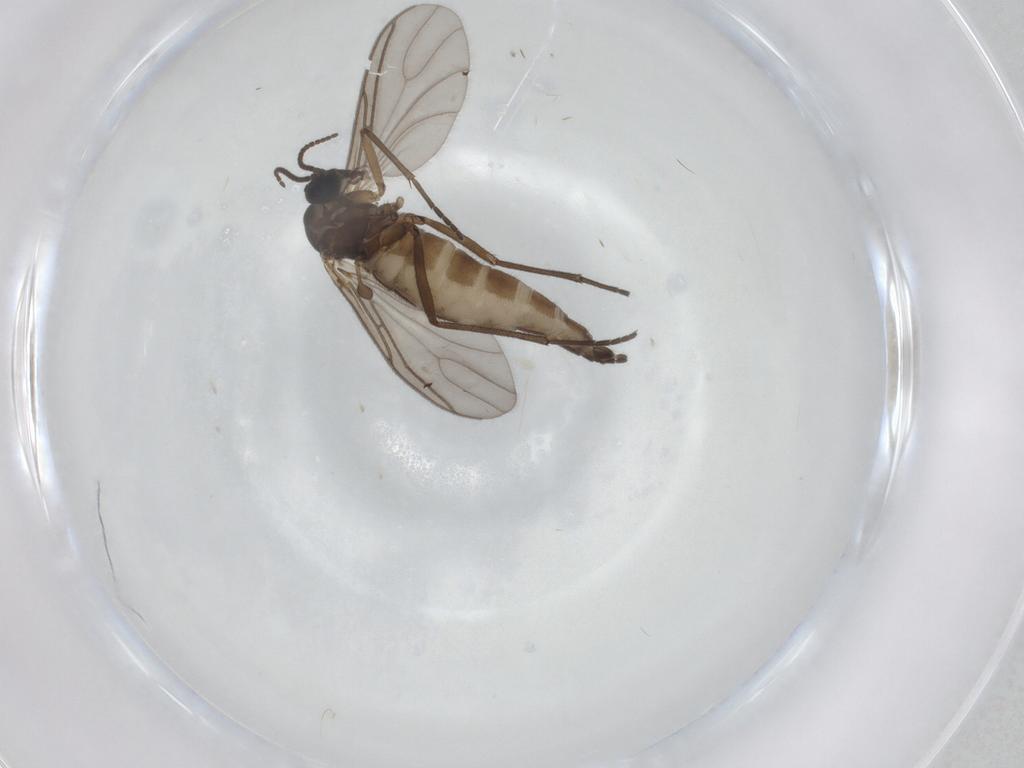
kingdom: Animalia
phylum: Arthropoda
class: Insecta
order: Diptera
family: Sciaridae
